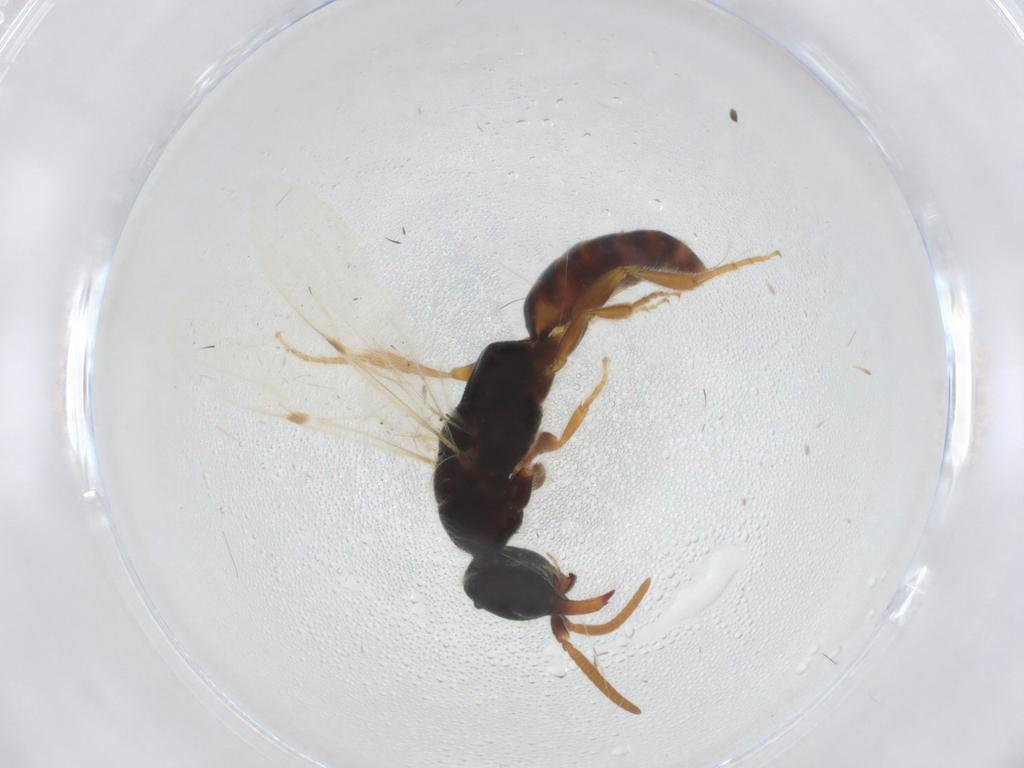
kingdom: Animalia
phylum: Arthropoda
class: Insecta
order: Hymenoptera
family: Bethylidae
